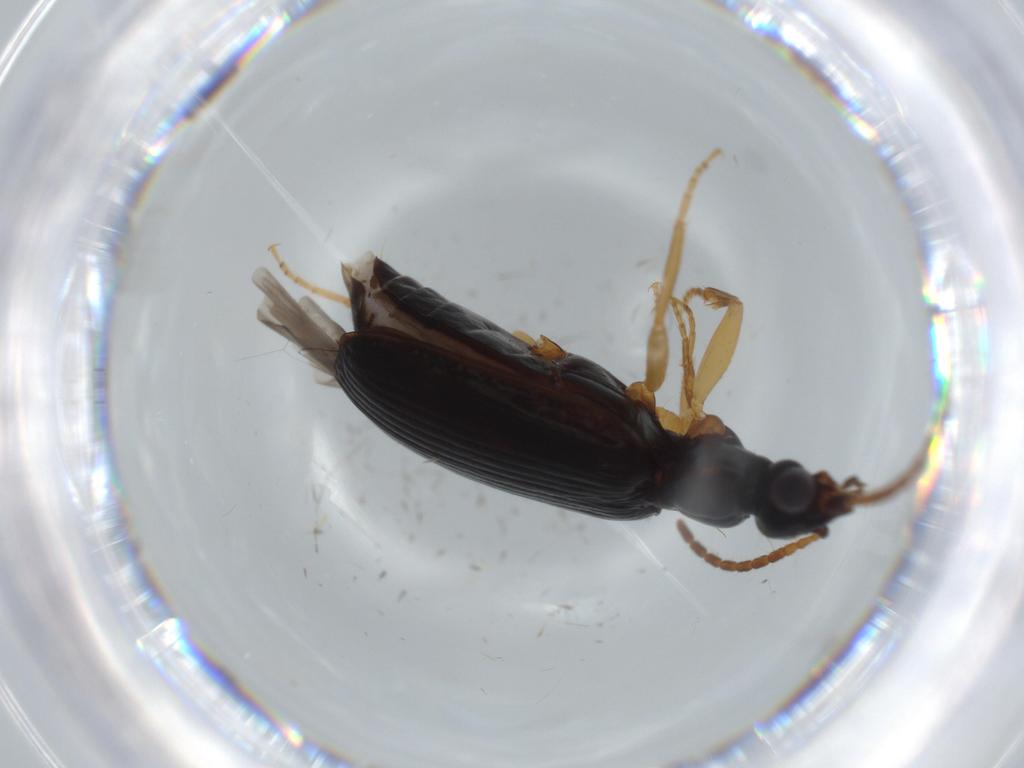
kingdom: Animalia
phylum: Arthropoda
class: Insecta
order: Coleoptera
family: Carabidae
